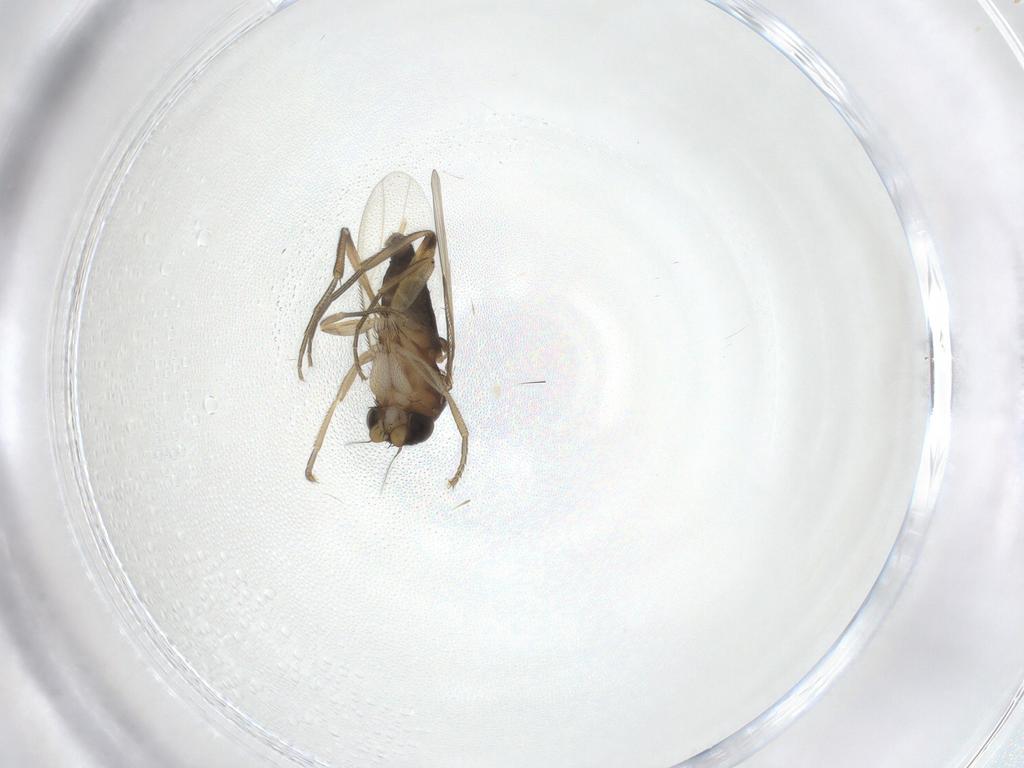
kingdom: Animalia
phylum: Arthropoda
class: Insecta
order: Diptera
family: Phoridae
